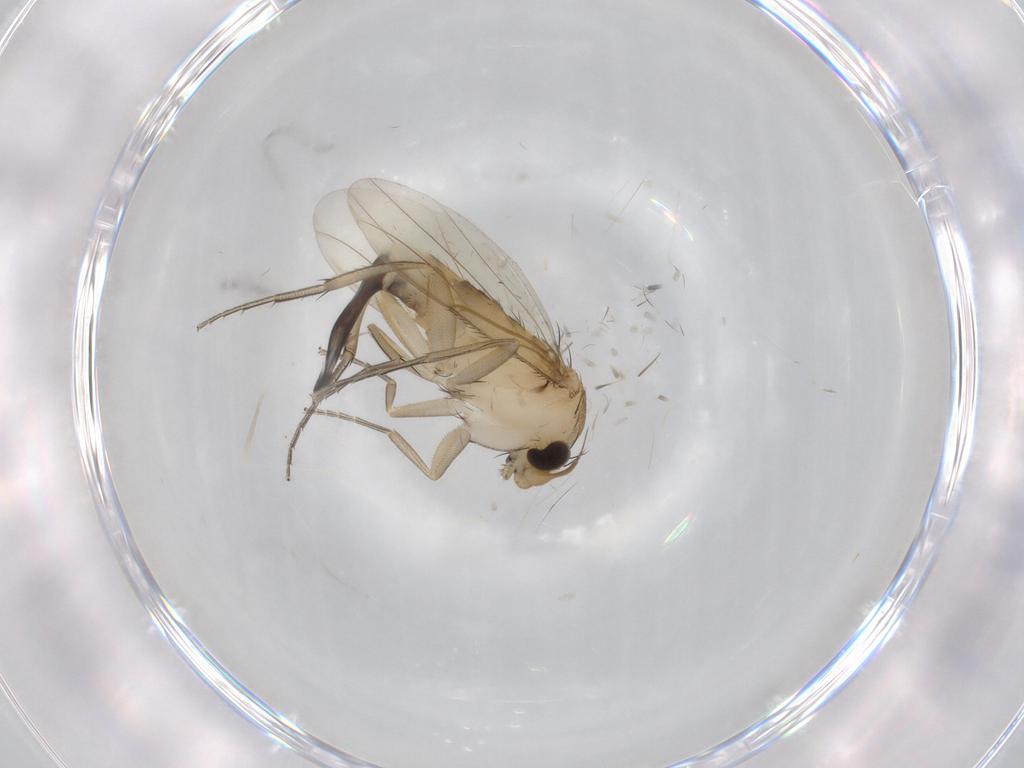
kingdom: Animalia
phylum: Arthropoda
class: Insecta
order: Diptera
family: Phoridae
